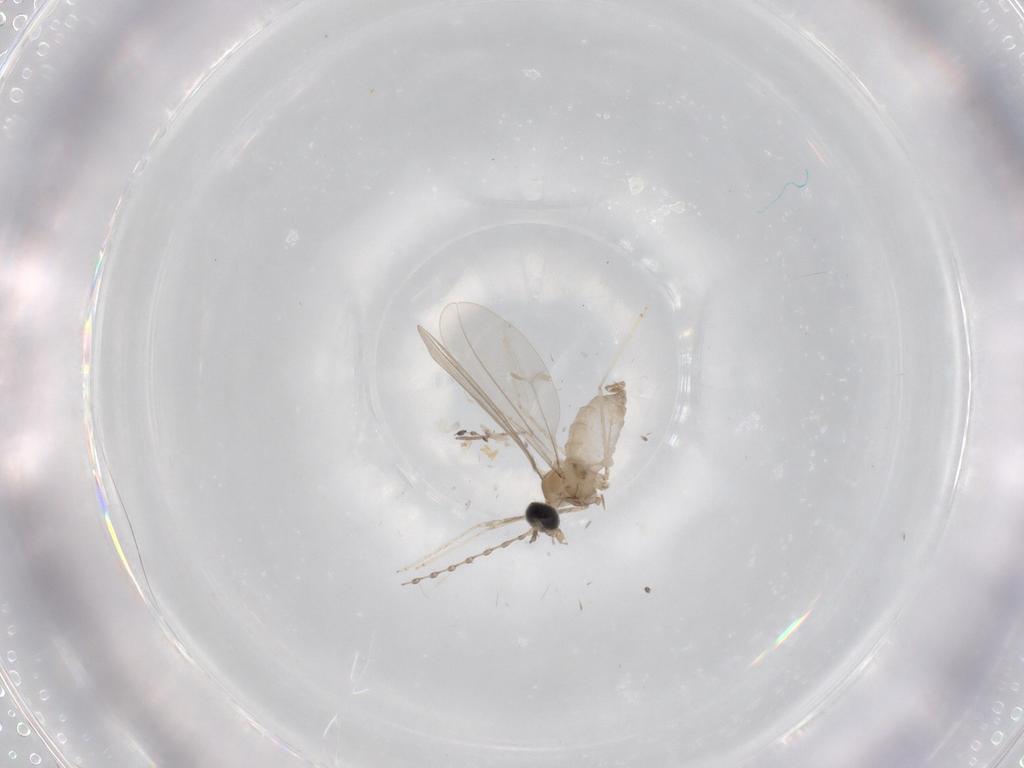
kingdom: Animalia
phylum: Arthropoda
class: Insecta
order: Diptera
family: Cecidomyiidae
